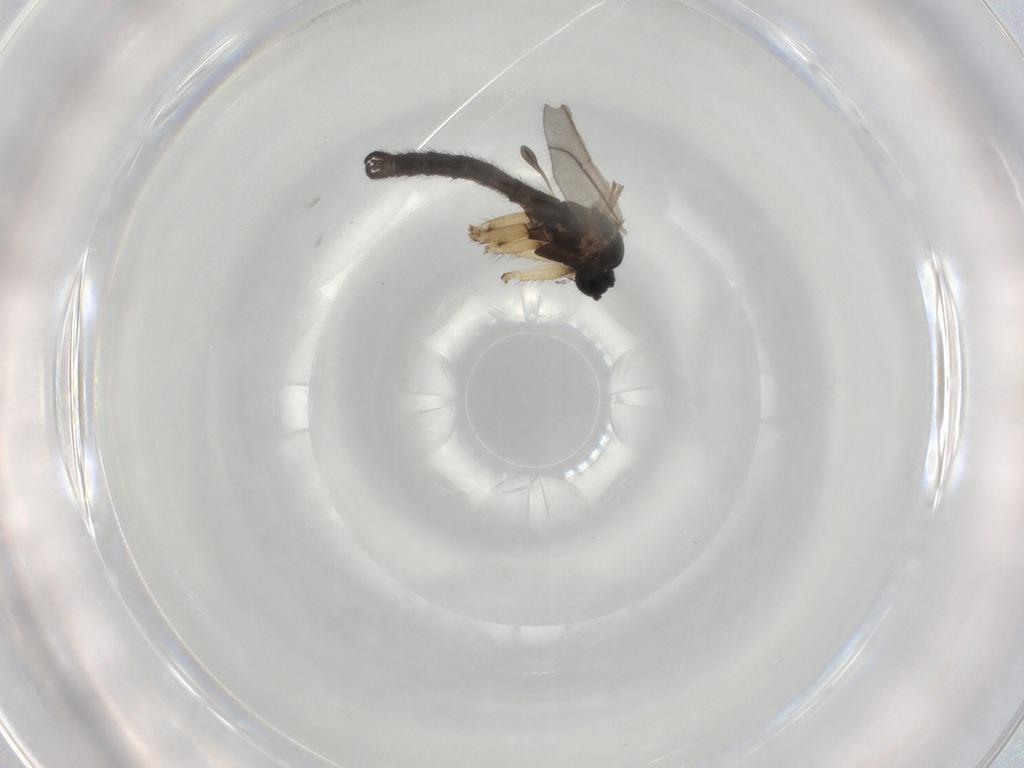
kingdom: Animalia
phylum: Arthropoda
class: Insecta
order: Diptera
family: Sciaridae
